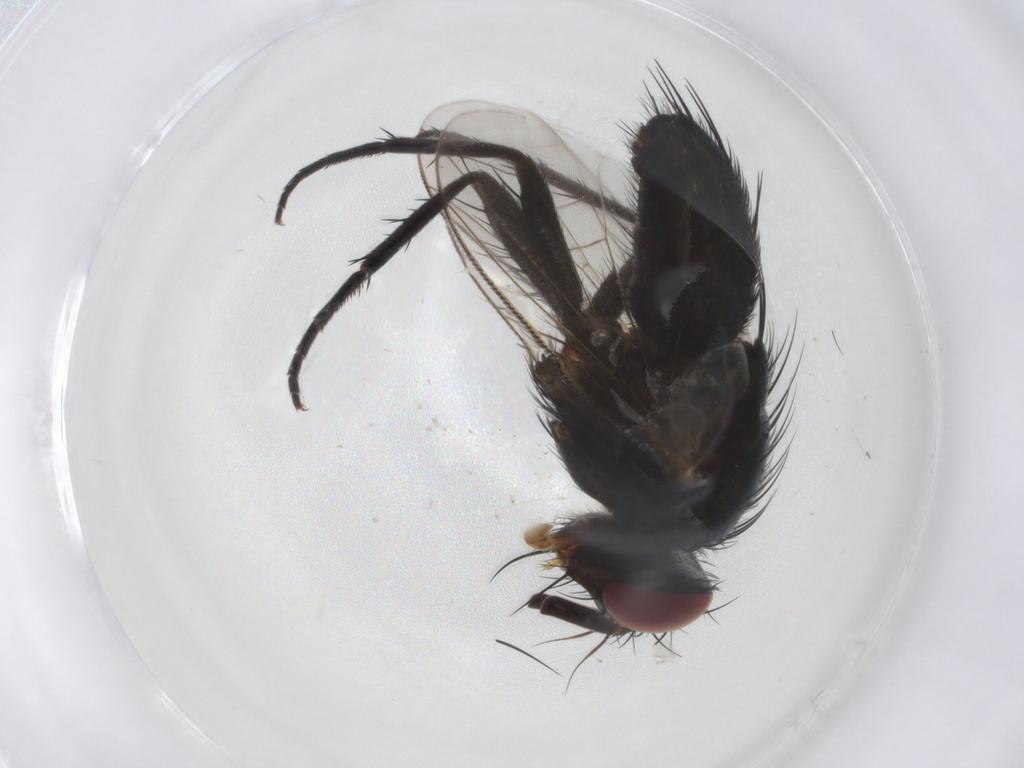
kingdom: Animalia
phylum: Arthropoda
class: Insecta
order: Diptera
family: Tachinidae
